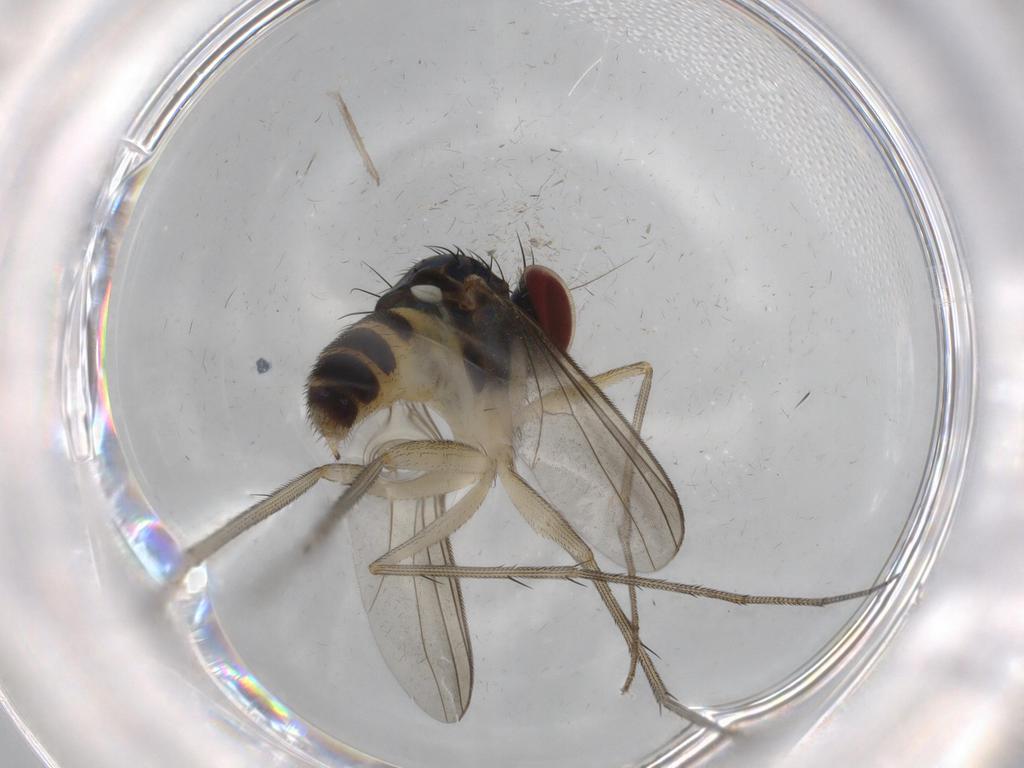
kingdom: Animalia
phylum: Arthropoda
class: Insecta
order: Diptera
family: Dolichopodidae
